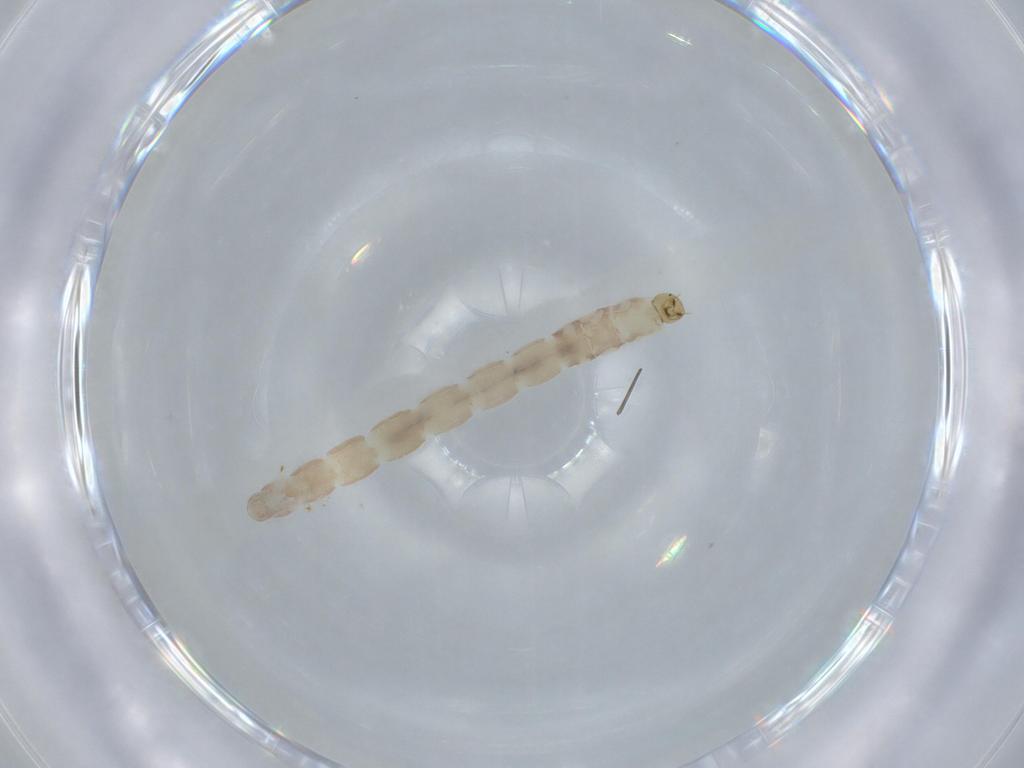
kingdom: Animalia
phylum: Arthropoda
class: Insecta
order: Diptera
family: Chironomidae
